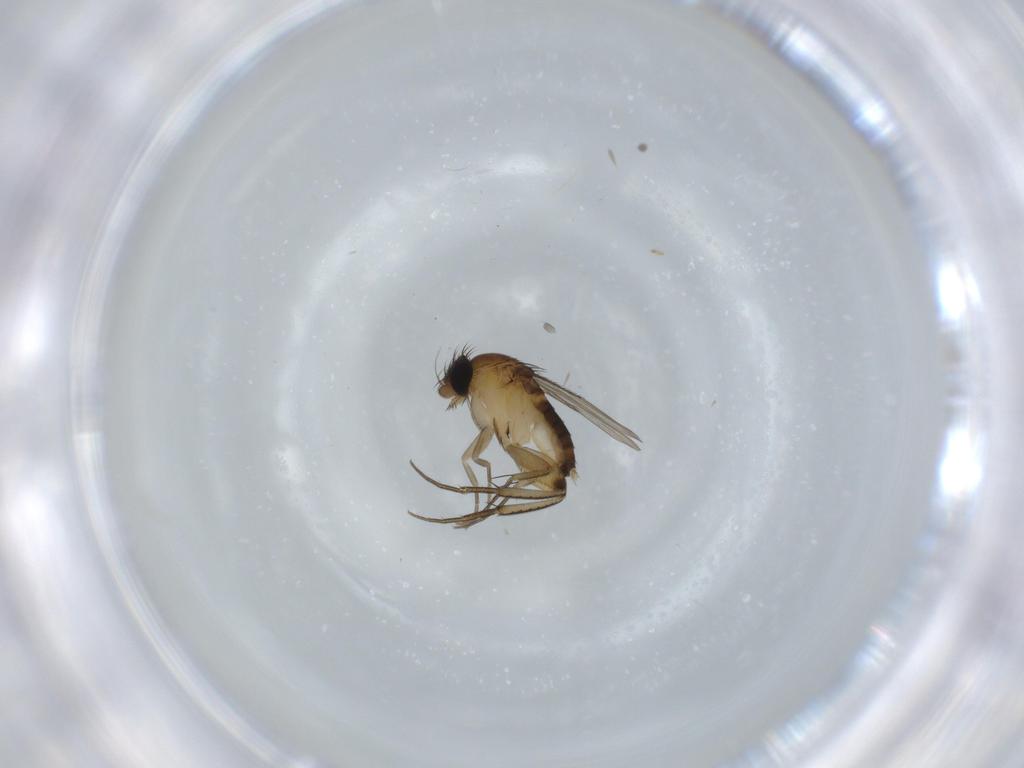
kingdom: Animalia
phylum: Arthropoda
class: Insecta
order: Diptera
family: Phoridae
